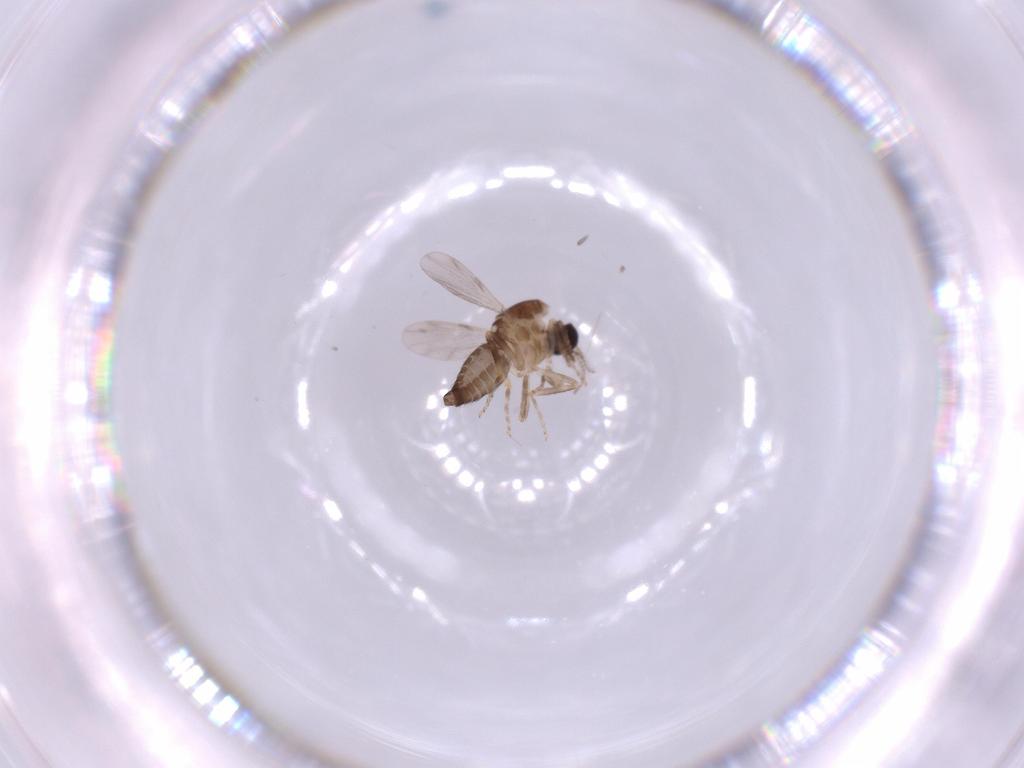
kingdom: Animalia
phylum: Arthropoda
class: Insecta
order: Diptera
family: Ceratopogonidae
